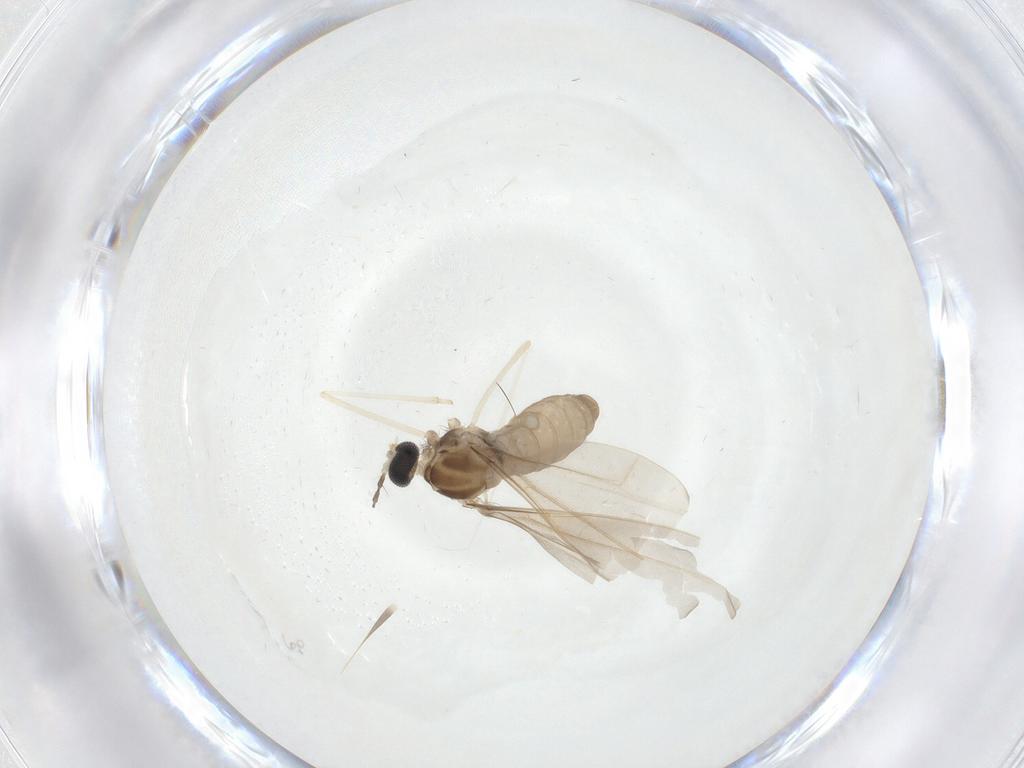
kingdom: Animalia
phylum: Arthropoda
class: Insecta
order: Diptera
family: Cecidomyiidae
